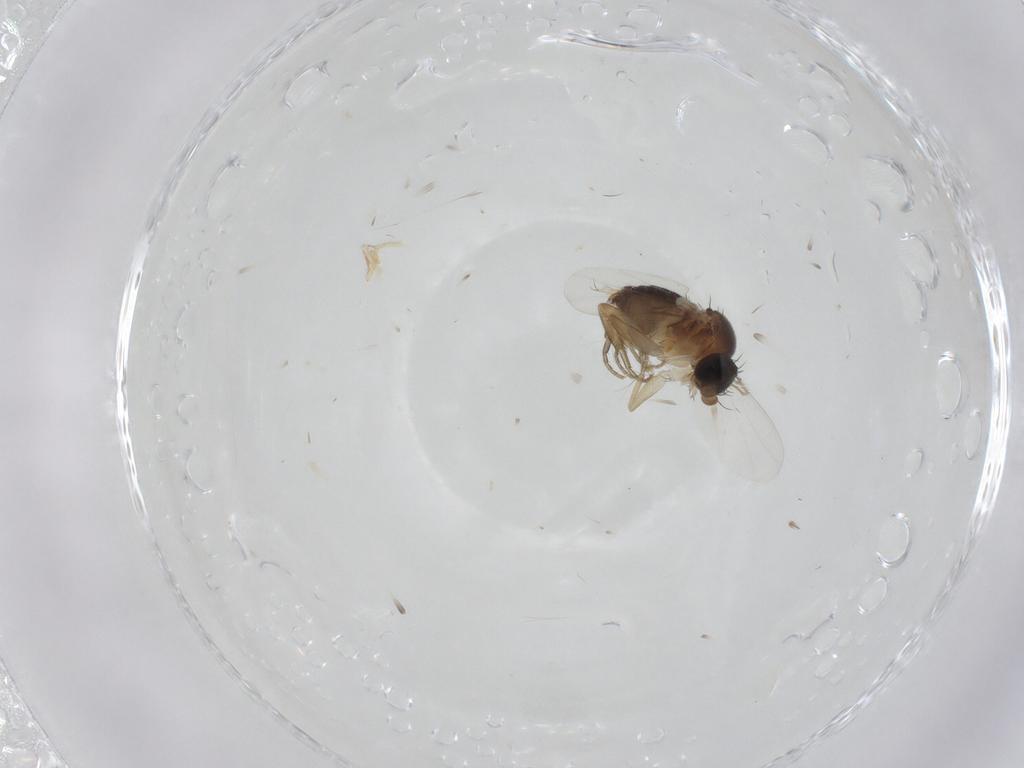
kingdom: Animalia
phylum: Arthropoda
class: Insecta
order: Diptera
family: Phoridae
